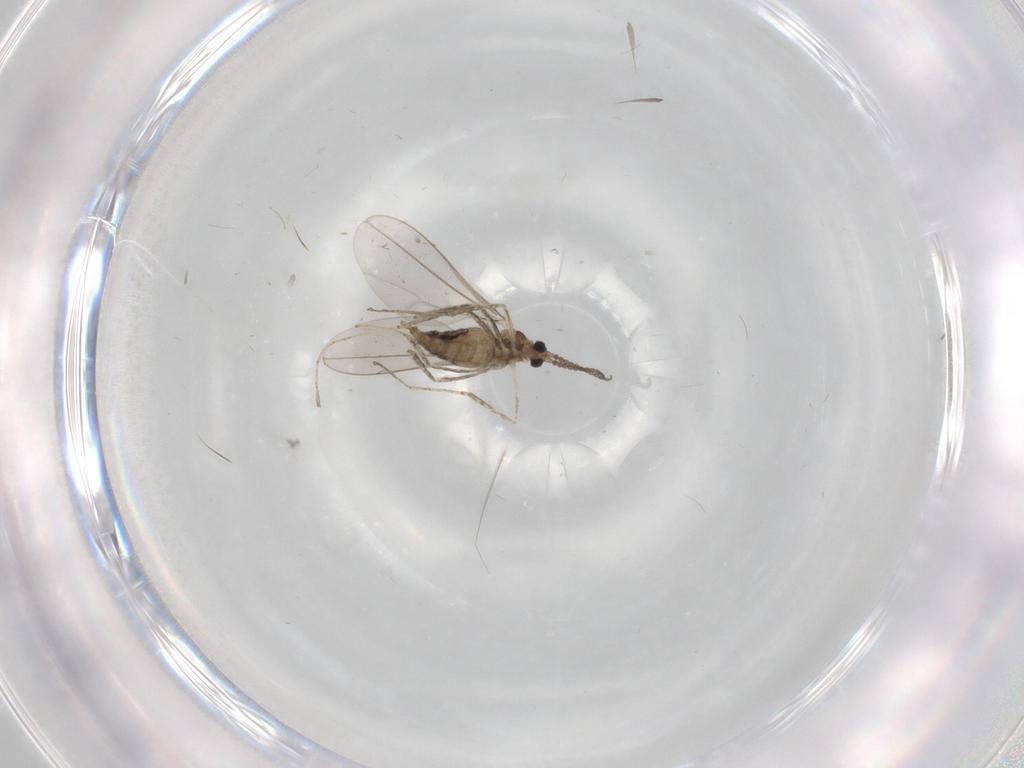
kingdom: Animalia
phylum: Arthropoda
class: Insecta
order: Diptera
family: Cecidomyiidae
